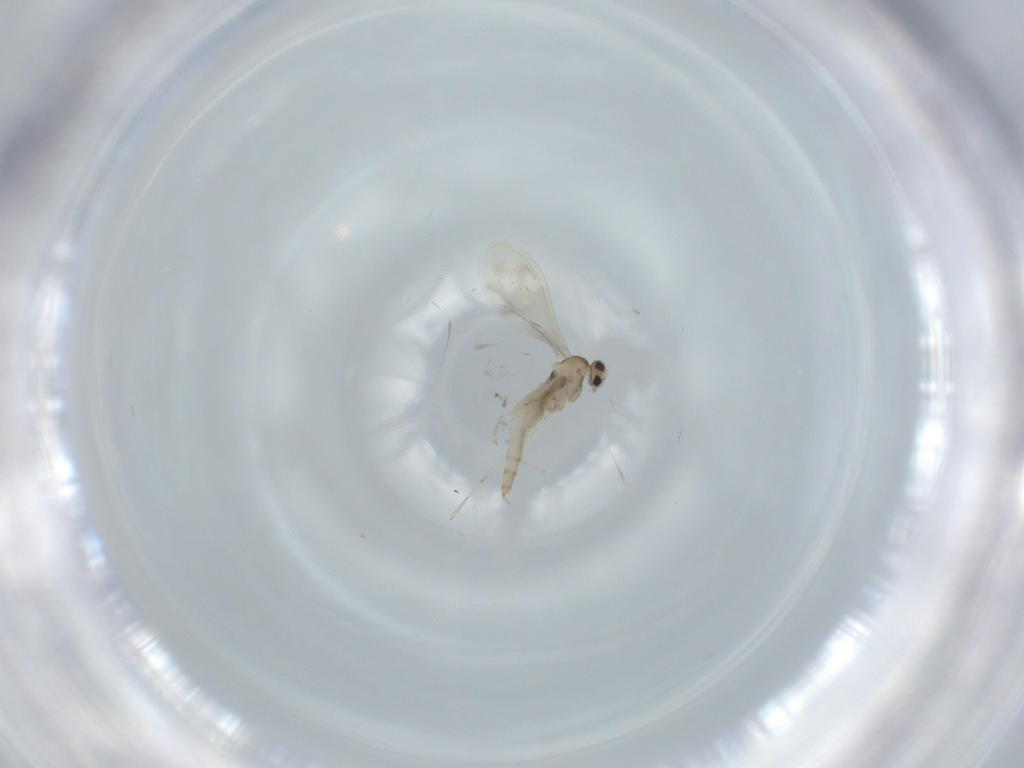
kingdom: Animalia
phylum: Arthropoda
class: Insecta
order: Diptera
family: Cecidomyiidae
